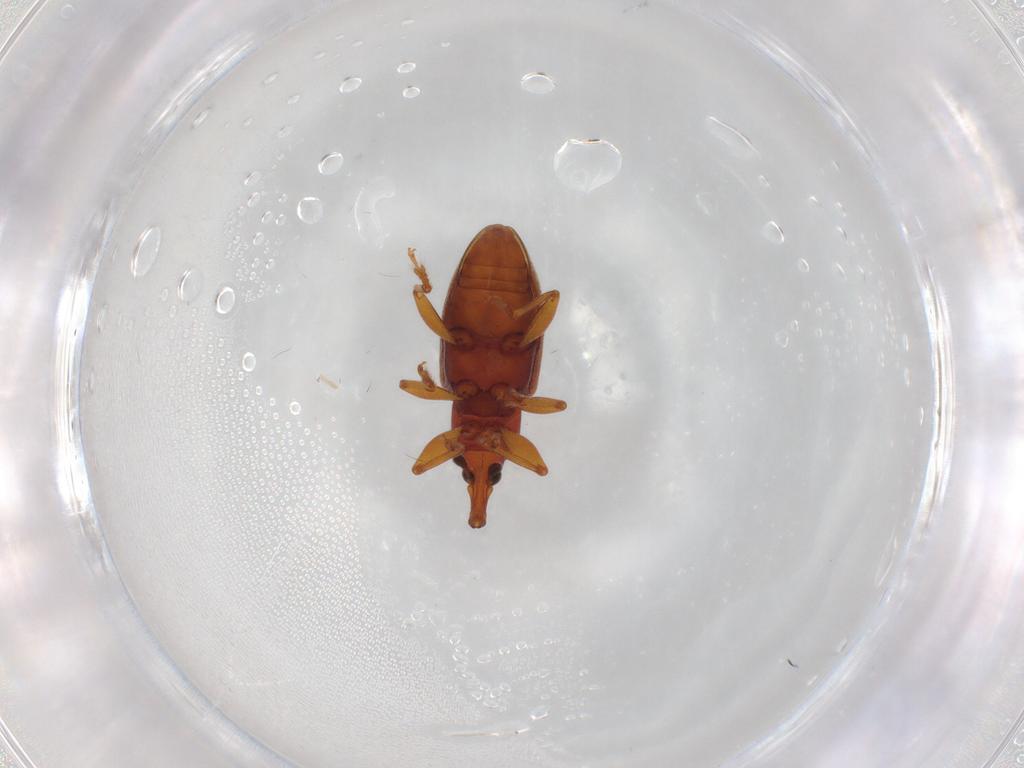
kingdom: Animalia
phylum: Arthropoda
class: Insecta
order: Coleoptera
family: Curculionidae
